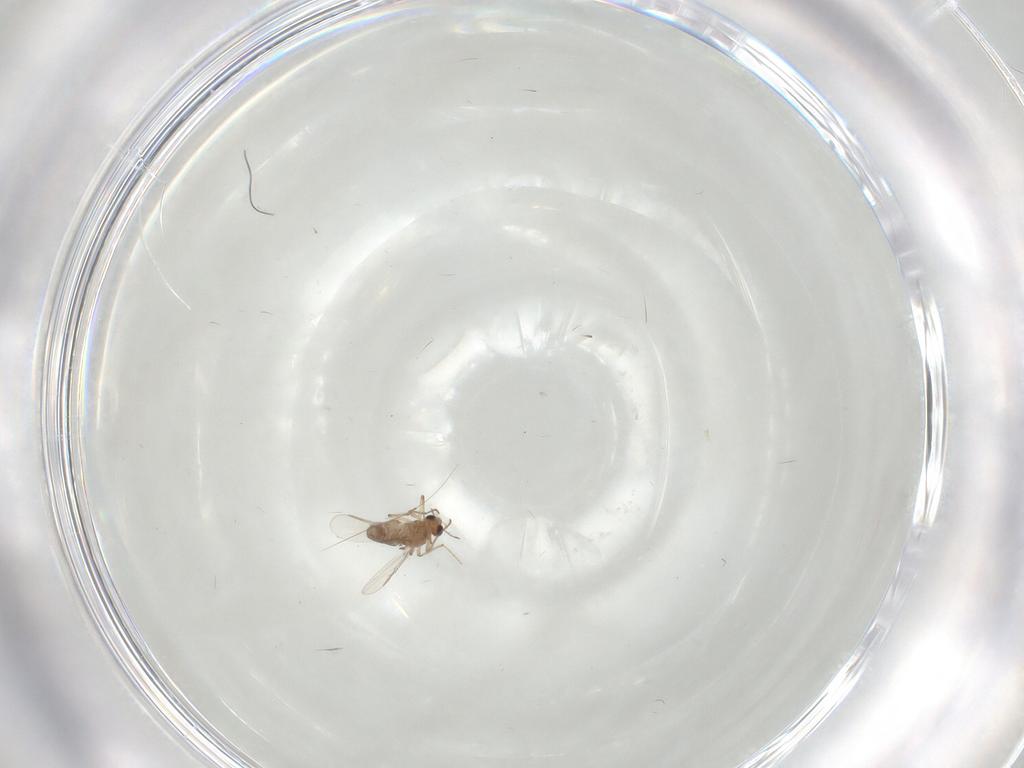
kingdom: Animalia
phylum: Arthropoda
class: Insecta
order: Diptera
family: Chironomidae
